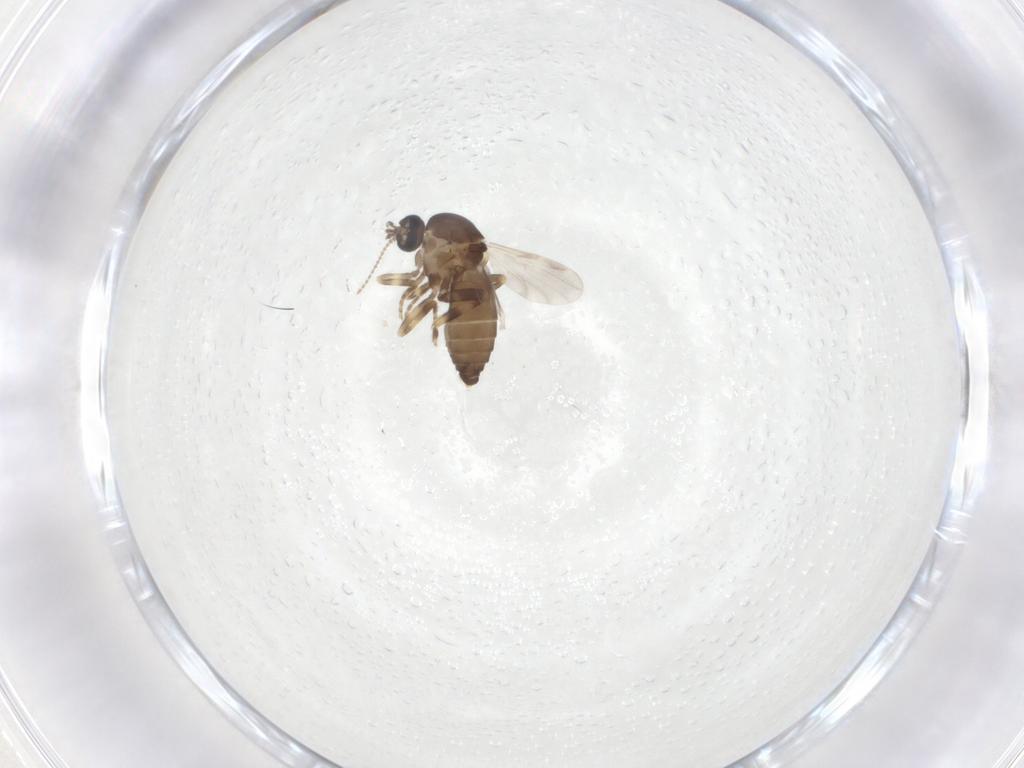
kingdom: Animalia
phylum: Arthropoda
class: Insecta
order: Diptera
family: Ceratopogonidae
